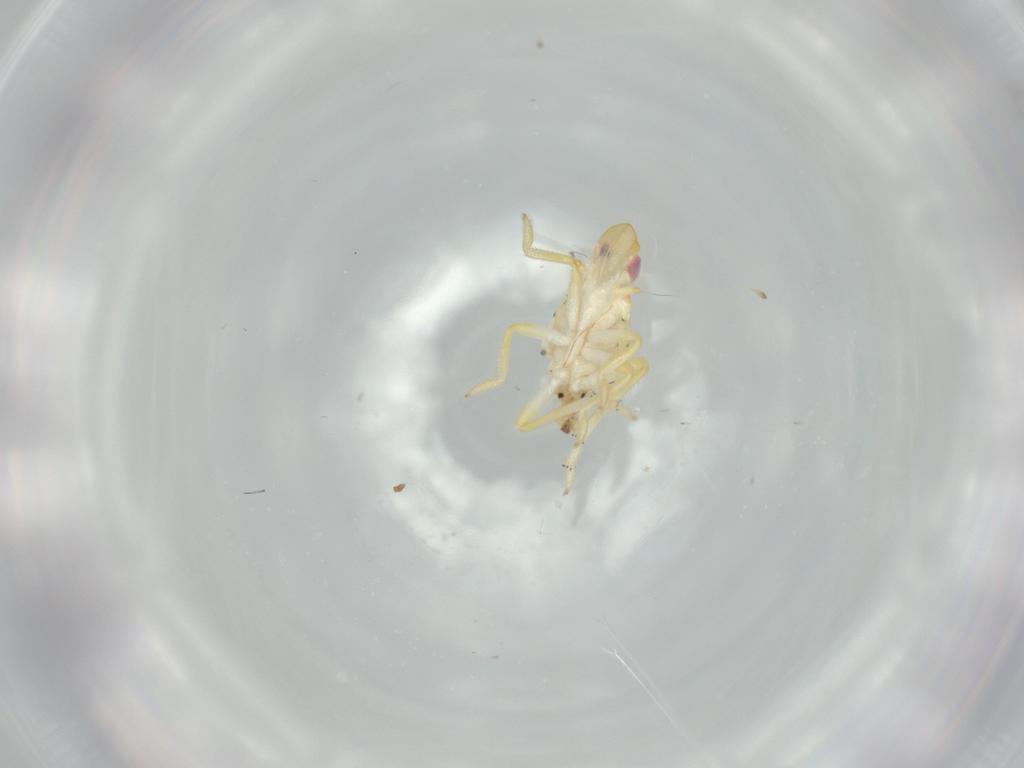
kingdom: Animalia
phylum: Arthropoda
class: Insecta
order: Hemiptera
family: Tropiduchidae
